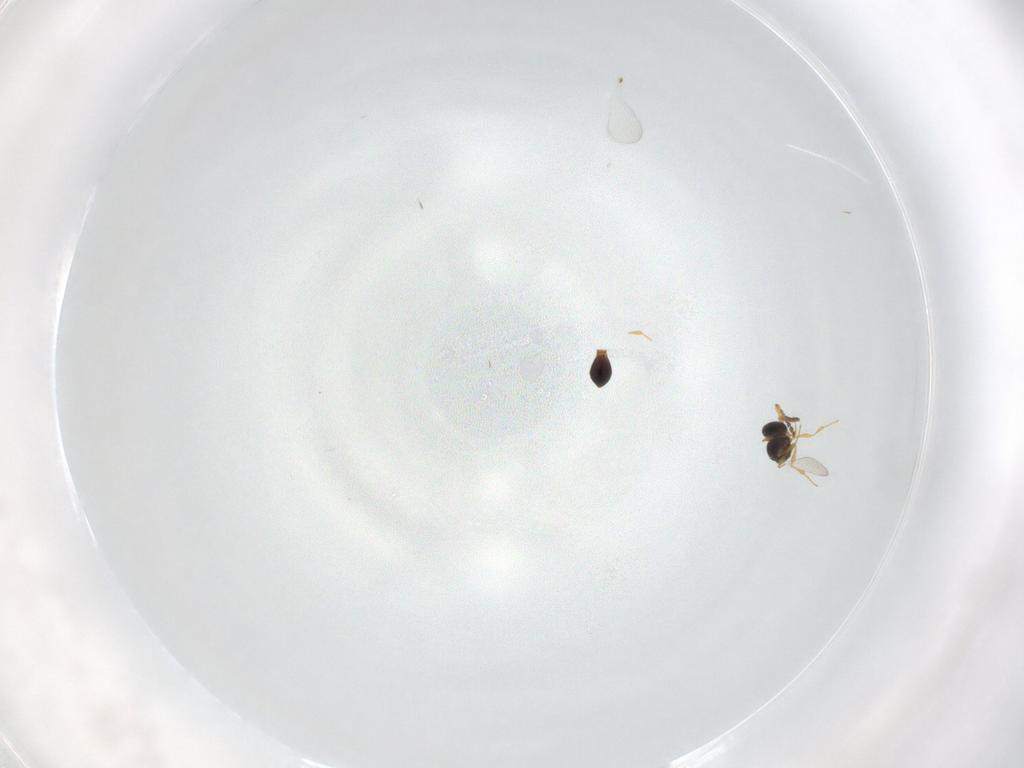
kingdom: Animalia
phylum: Arthropoda
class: Insecta
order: Hymenoptera
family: Platygastridae
